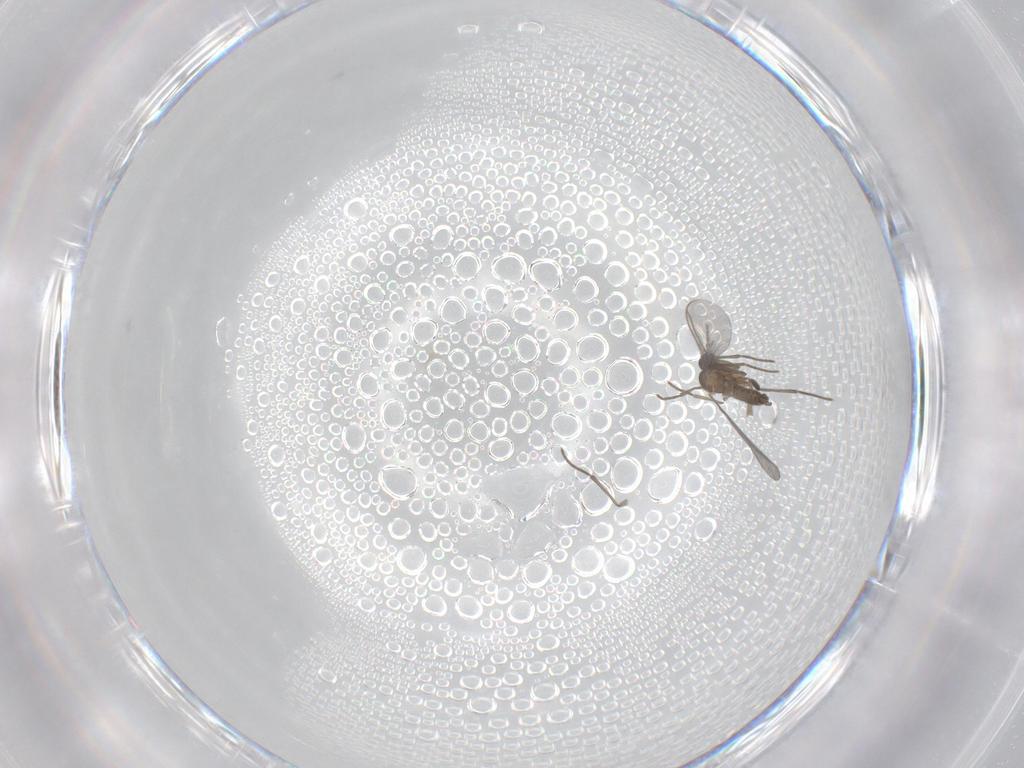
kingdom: Animalia
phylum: Arthropoda
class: Insecta
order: Diptera
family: Sciaridae
